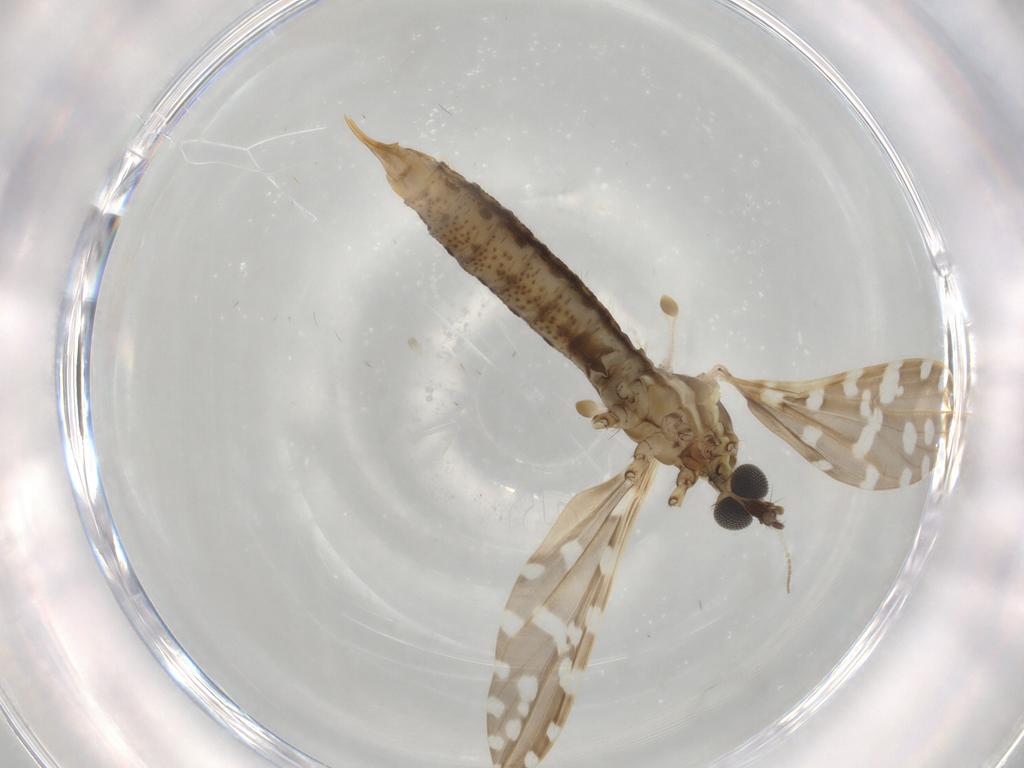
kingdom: Animalia
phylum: Arthropoda
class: Insecta
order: Diptera
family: Limoniidae
